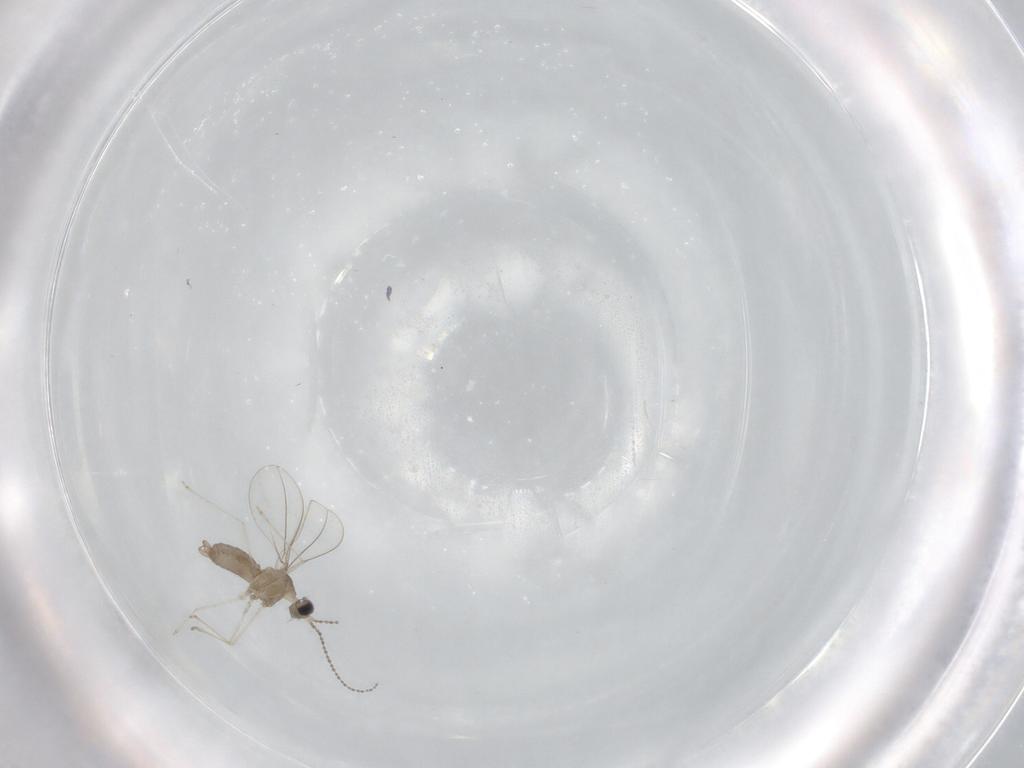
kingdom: Animalia
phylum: Arthropoda
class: Insecta
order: Diptera
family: Cecidomyiidae
